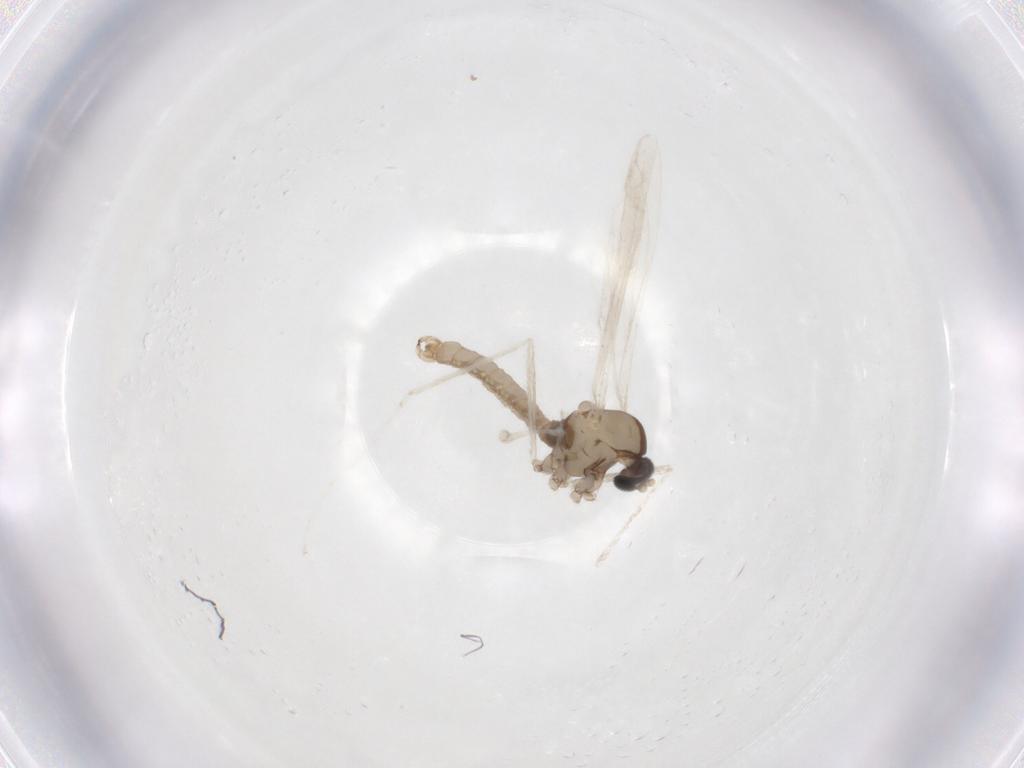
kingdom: Animalia
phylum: Arthropoda
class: Insecta
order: Diptera
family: Cecidomyiidae
